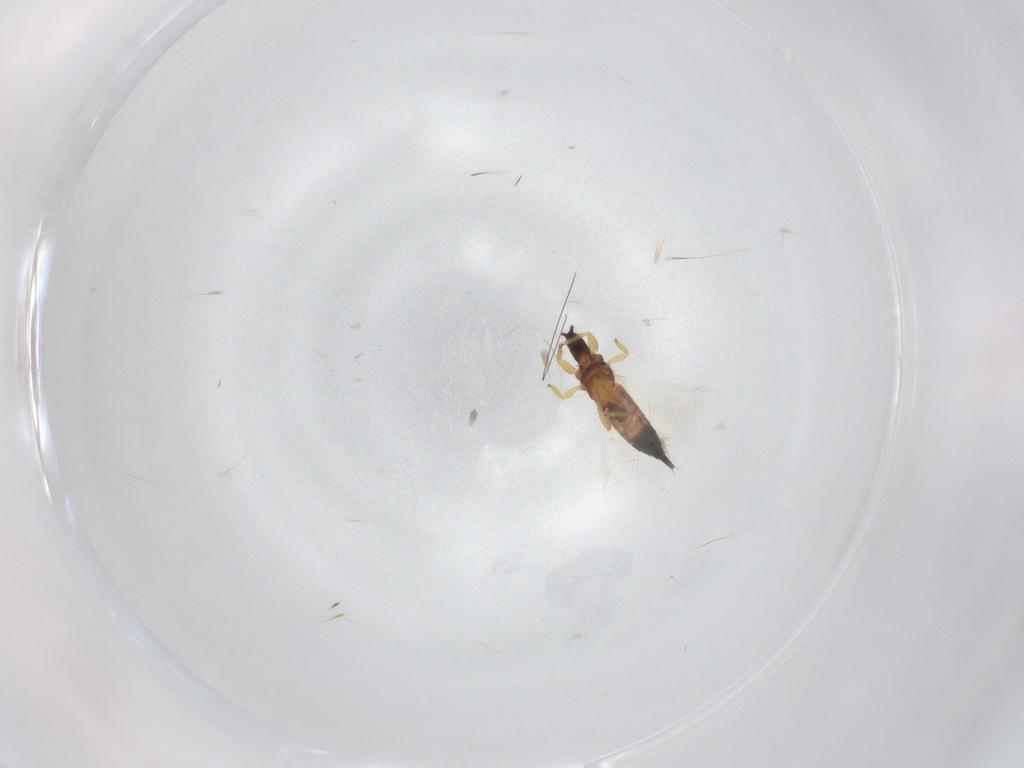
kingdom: Animalia
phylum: Arthropoda
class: Insecta
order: Thysanoptera
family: Phlaeothripidae
